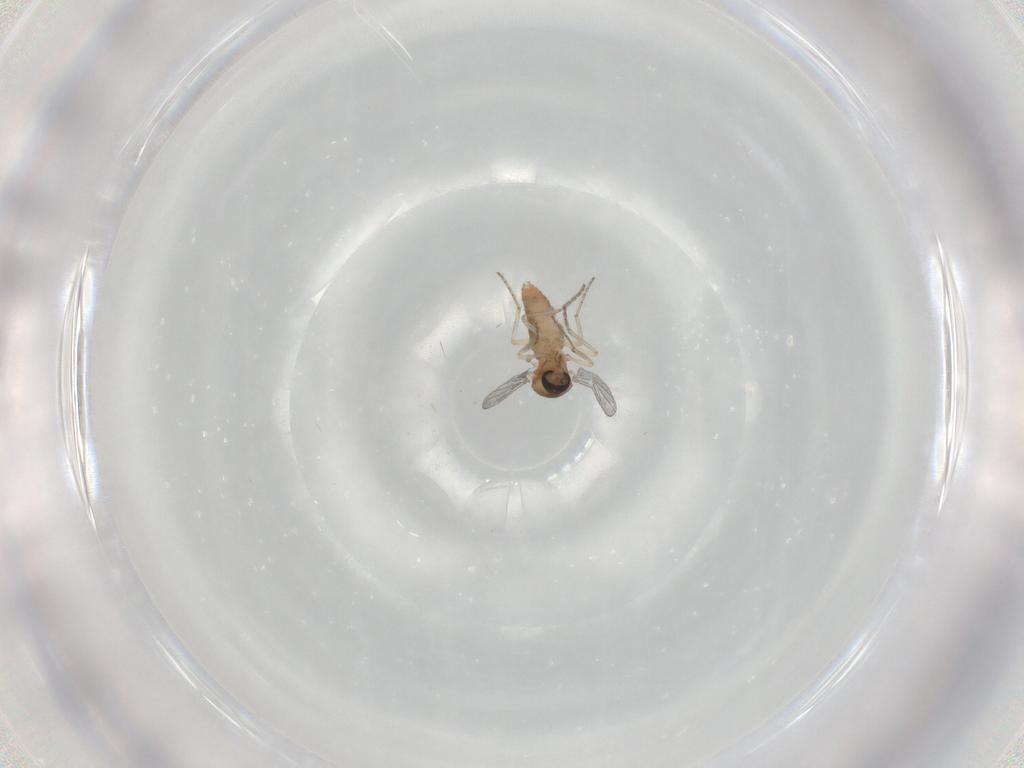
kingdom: Animalia
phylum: Arthropoda
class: Insecta
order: Diptera
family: Ceratopogonidae
